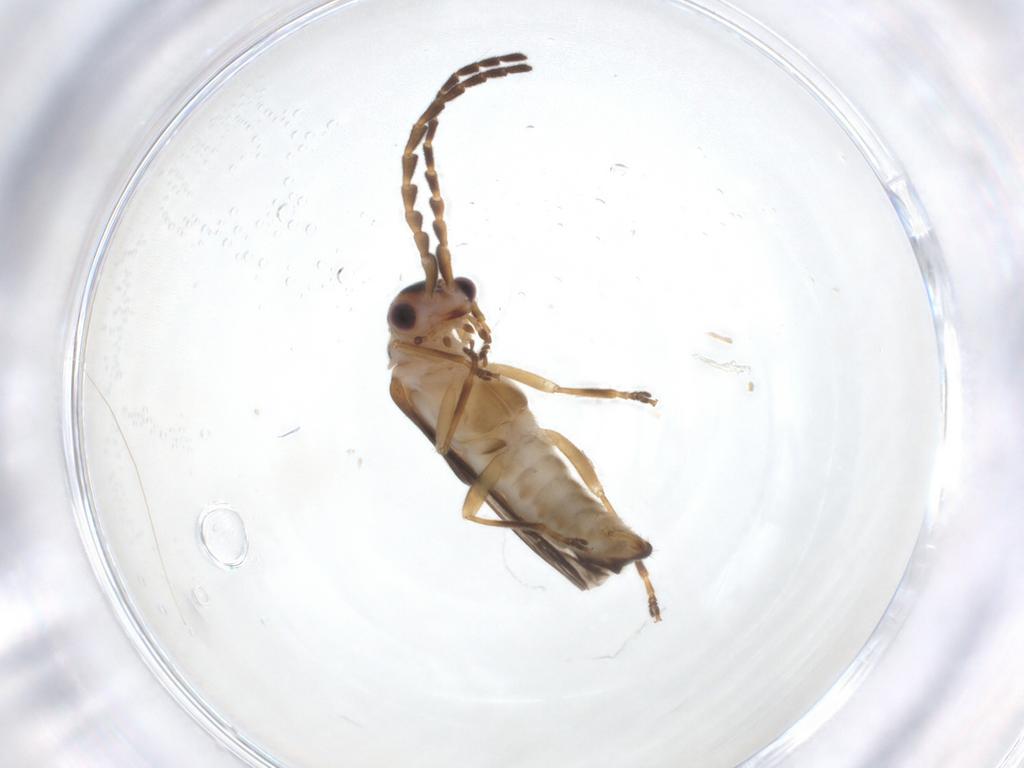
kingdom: Animalia
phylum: Arthropoda
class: Insecta
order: Coleoptera
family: Cantharidae
